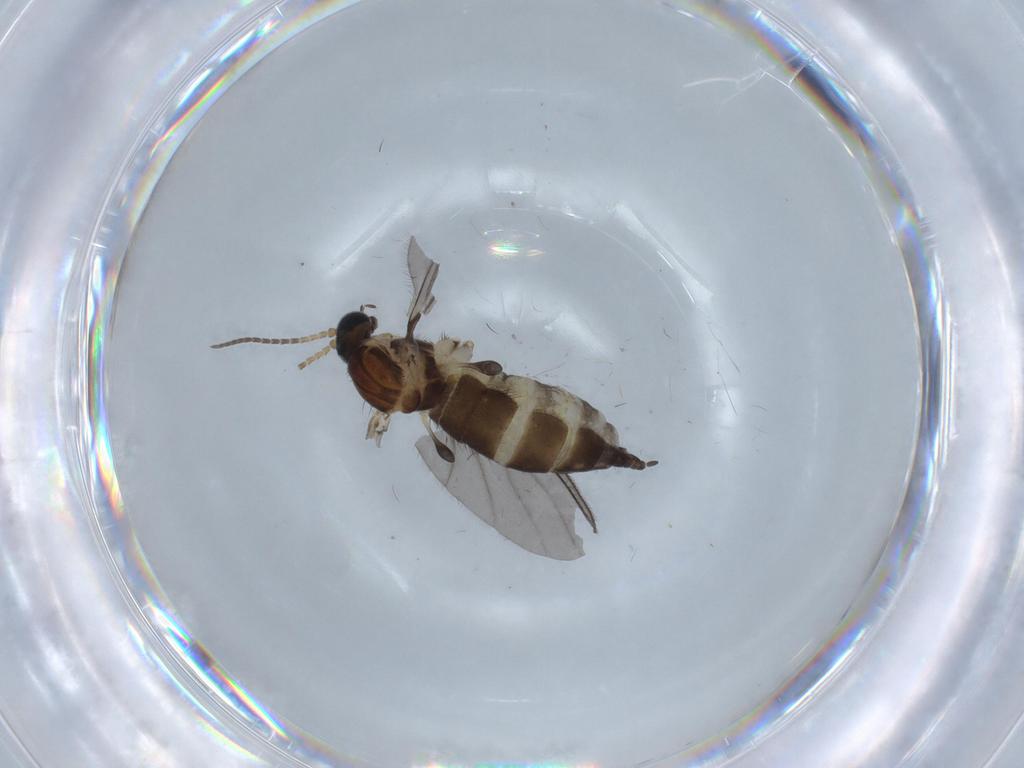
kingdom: Animalia
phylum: Arthropoda
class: Insecta
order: Diptera
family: Sciaridae
